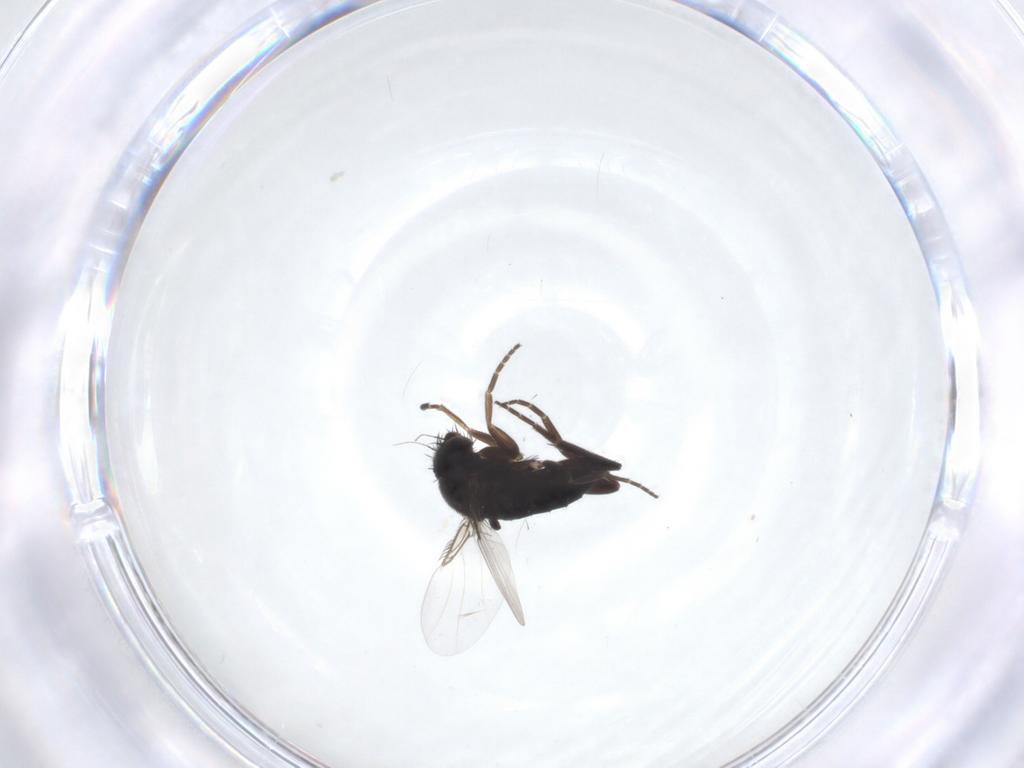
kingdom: Animalia
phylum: Arthropoda
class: Insecta
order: Diptera
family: Phoridae
